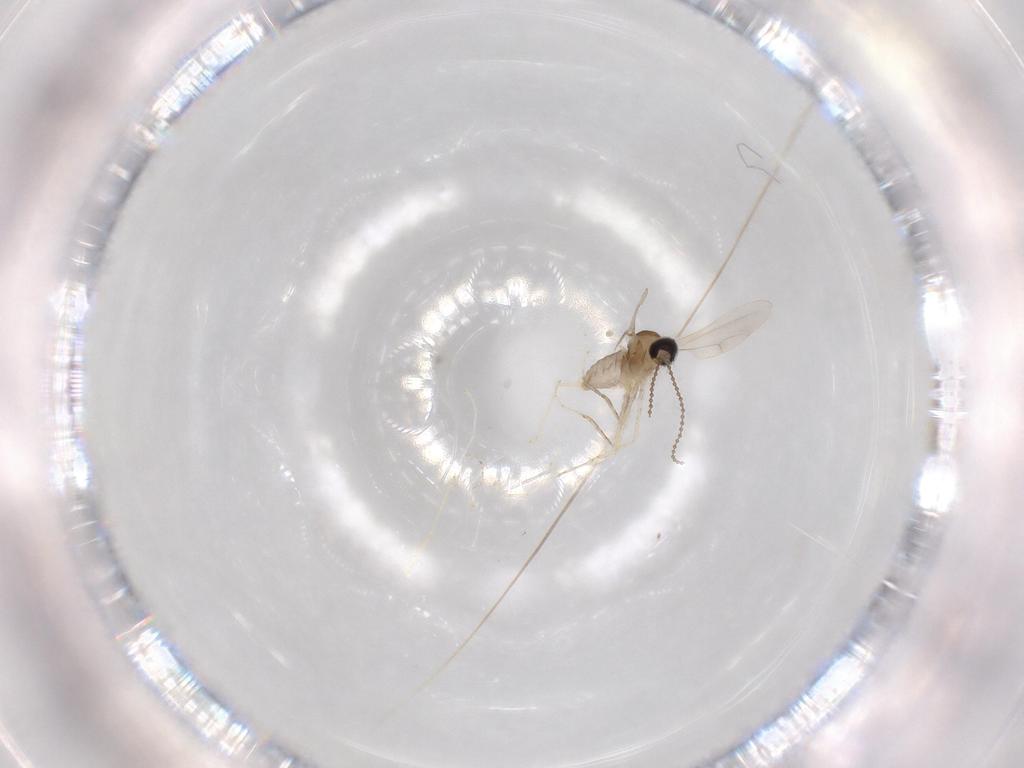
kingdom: Animalia
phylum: Arthropoda
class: Insecta
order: Diptera
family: Cecidomyiidae
